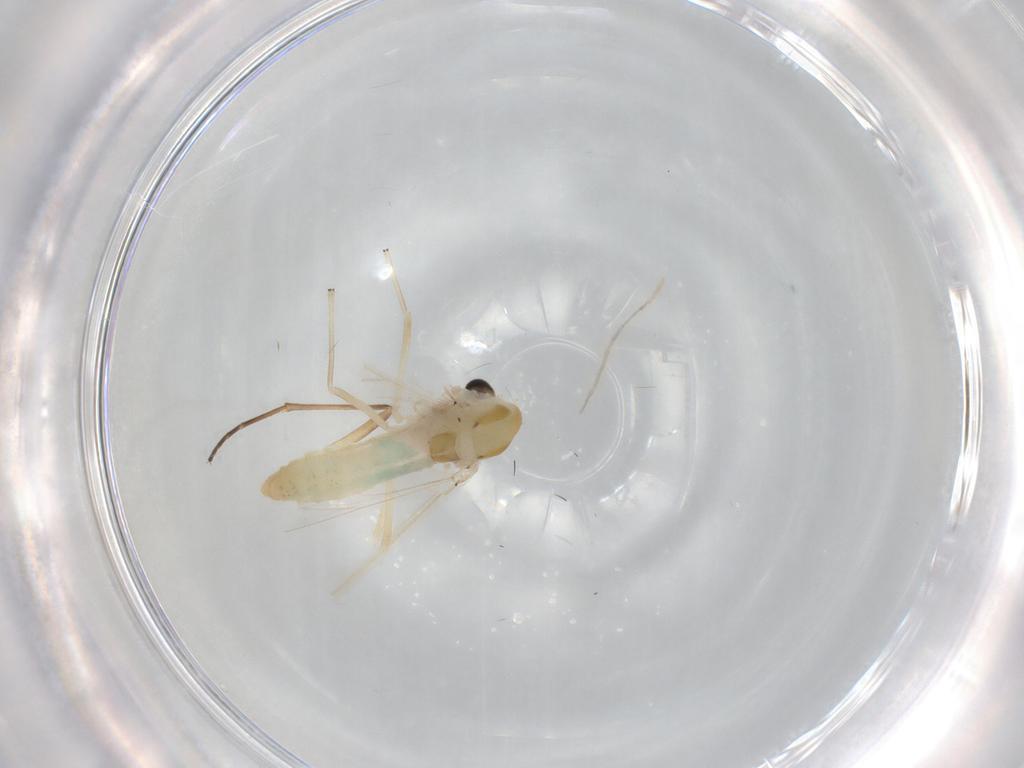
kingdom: Animalia
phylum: Arthropoda
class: Insecta
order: Diptera
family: Chironomidae
